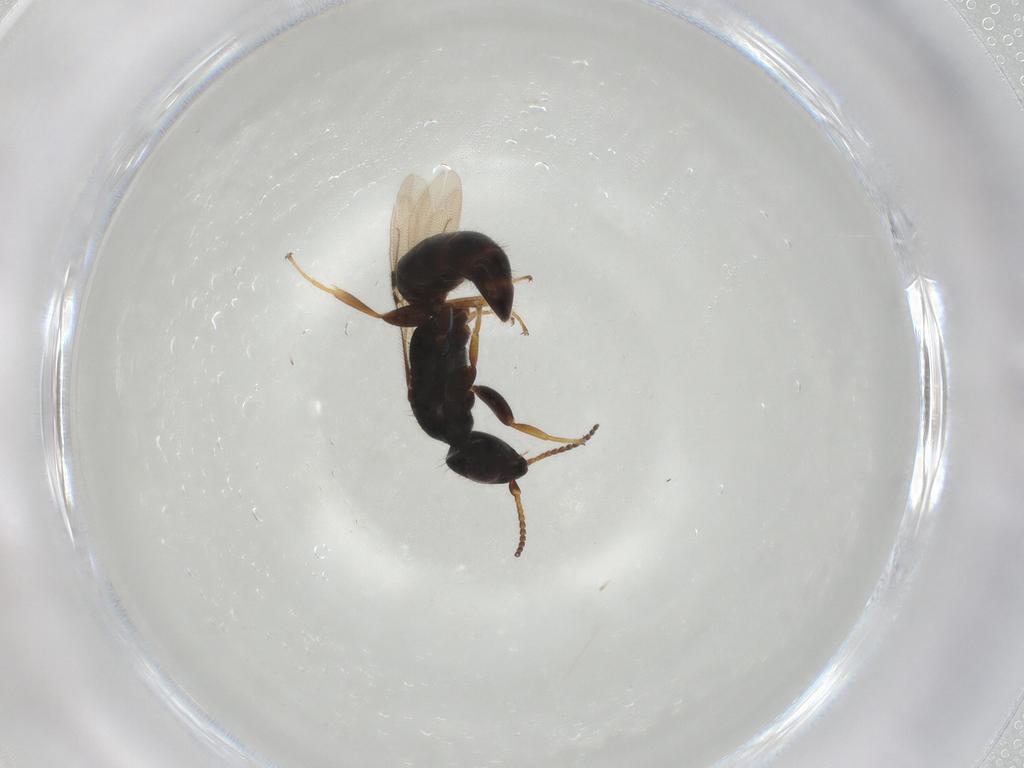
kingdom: Animalia
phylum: Arthropoda
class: Insecta
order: Hymenoptera
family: Bethylidae
